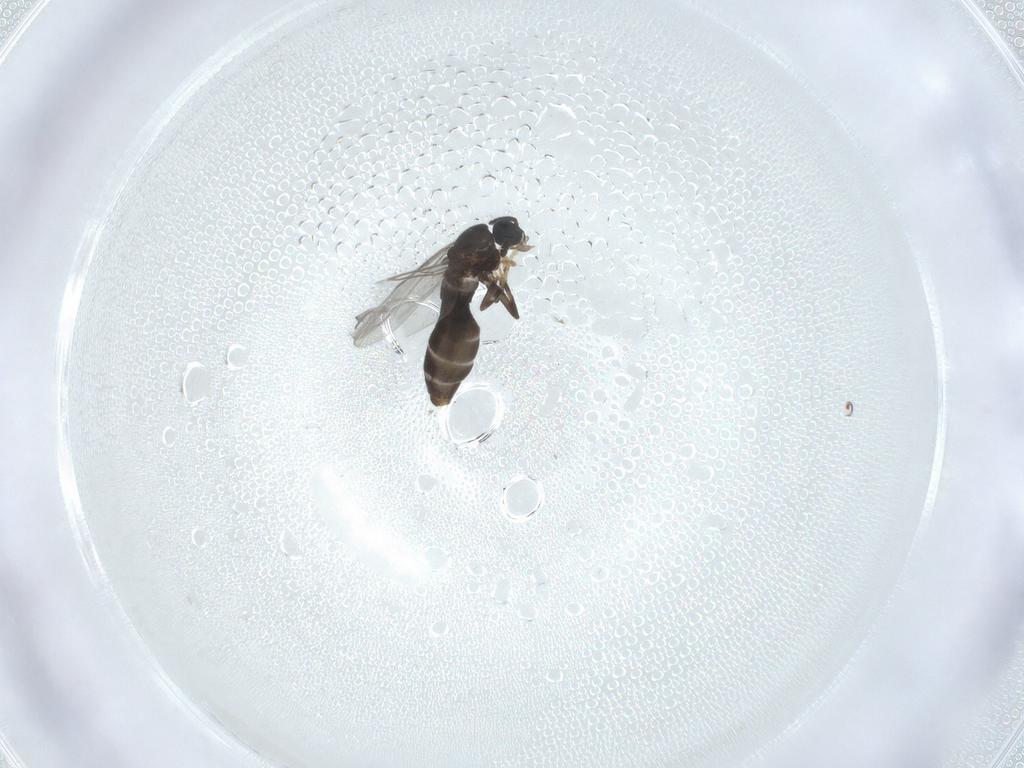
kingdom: Animalia
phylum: Arthropoda
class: Insecta
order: Diptera
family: Scatopsidae
